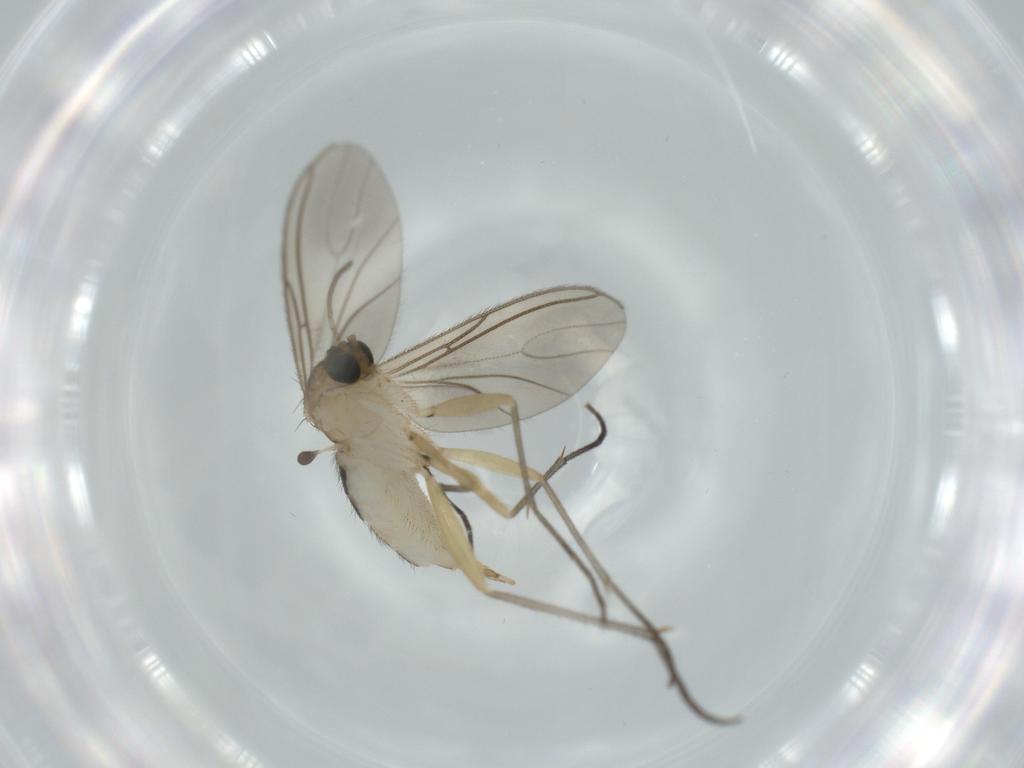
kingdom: Animalia
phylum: Arthropoda
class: Insecta
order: Diptera
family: Sciaridae
